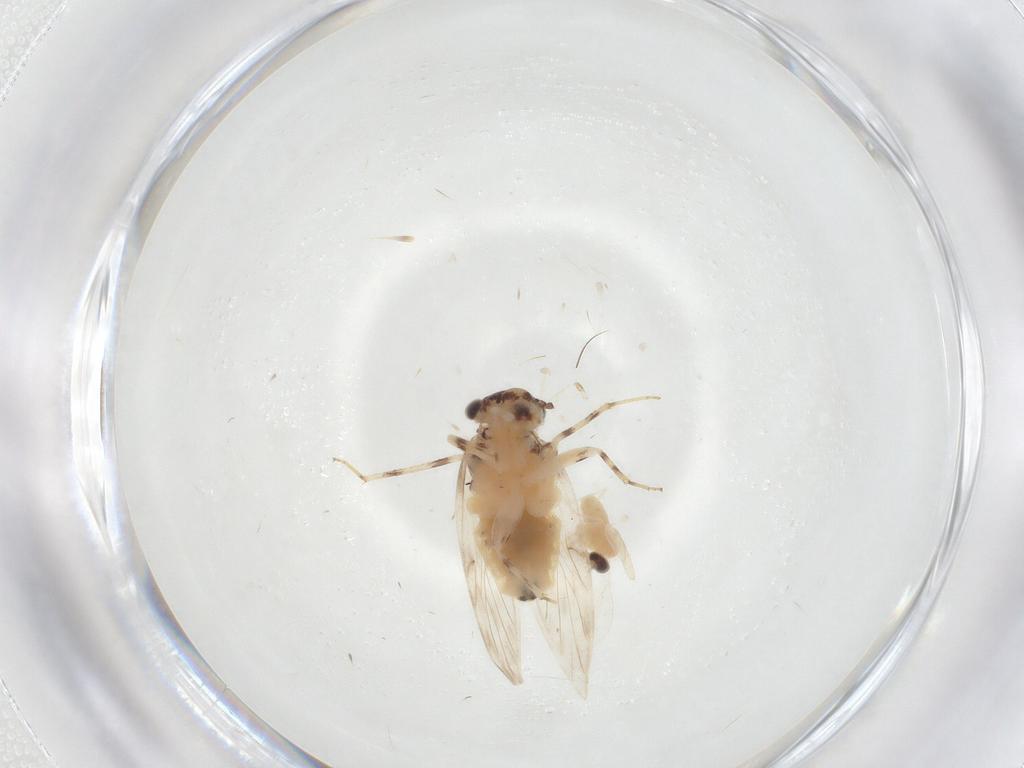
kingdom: Animalia
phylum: Arthropoda
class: Insecta
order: Psocodea
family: Lepidopsocidae
